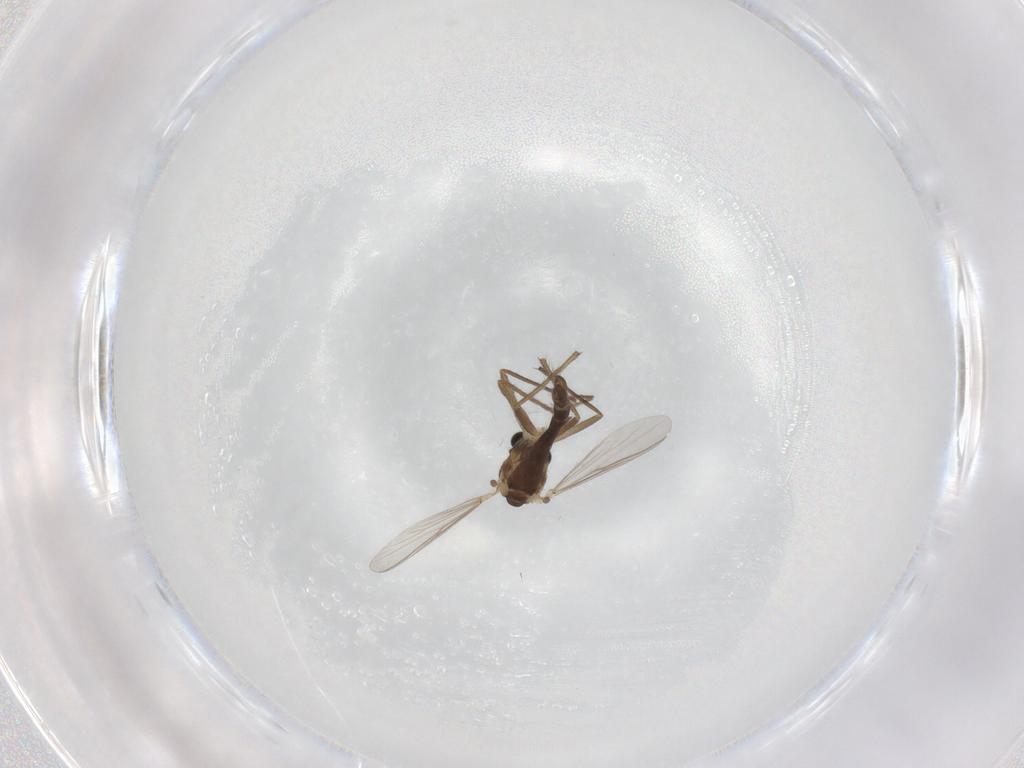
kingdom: Animalia
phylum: Arthropoda
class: Insecta
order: Diptera
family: Chironomidae
